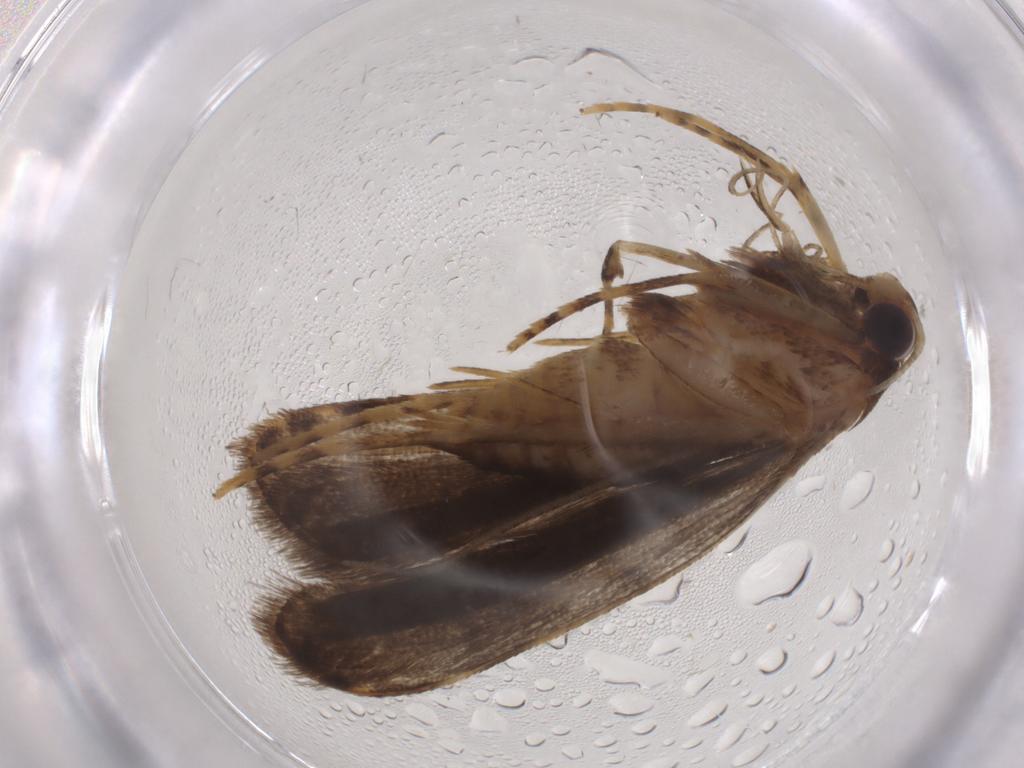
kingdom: Animalia
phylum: Arthropoda
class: Insecta
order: Lepidoptera
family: Autostichidae
